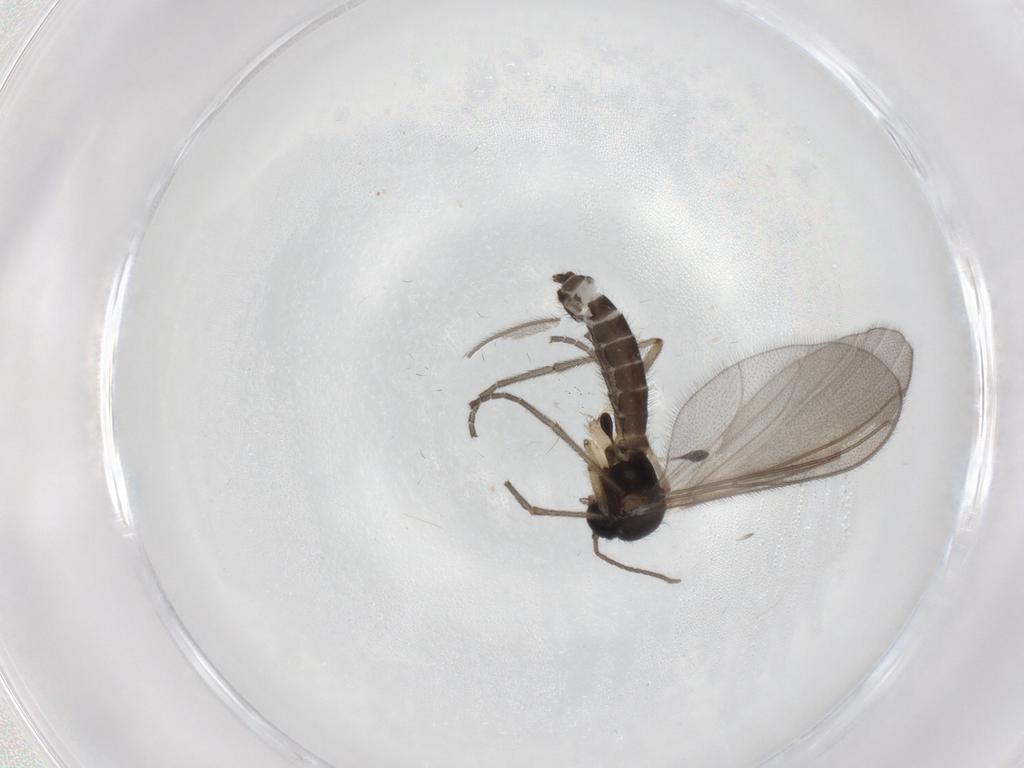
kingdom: Animalia
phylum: Arthropoda
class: Insecta
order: Diptera
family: Mycetophilidae
